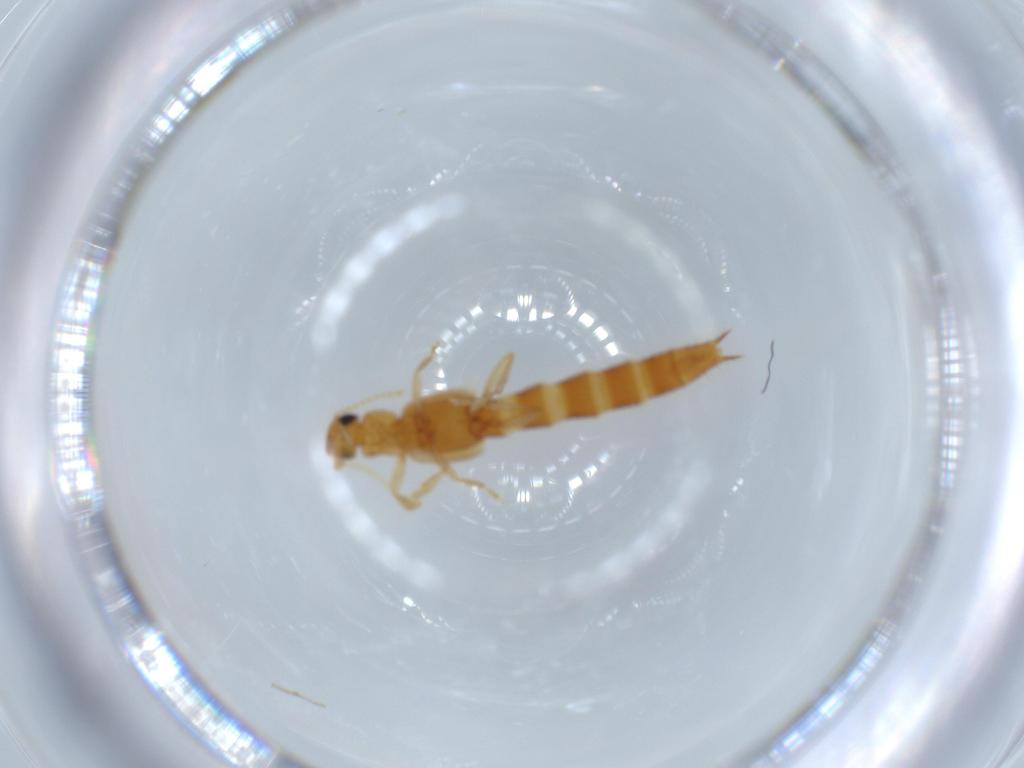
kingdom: Animalia
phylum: Arthropoda
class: Insecta
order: Coleoptera
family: Staphylinidae
